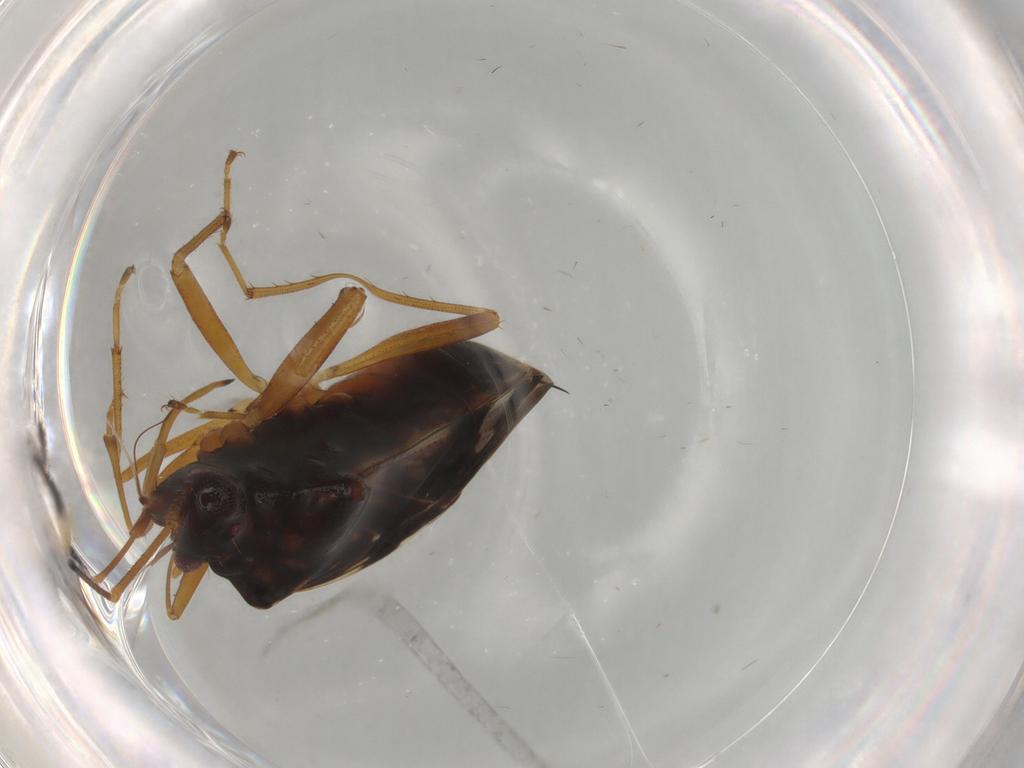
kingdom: Animalia
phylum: Arthropoda
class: Insecta
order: Hemiptera
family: Rhyparochromidae
